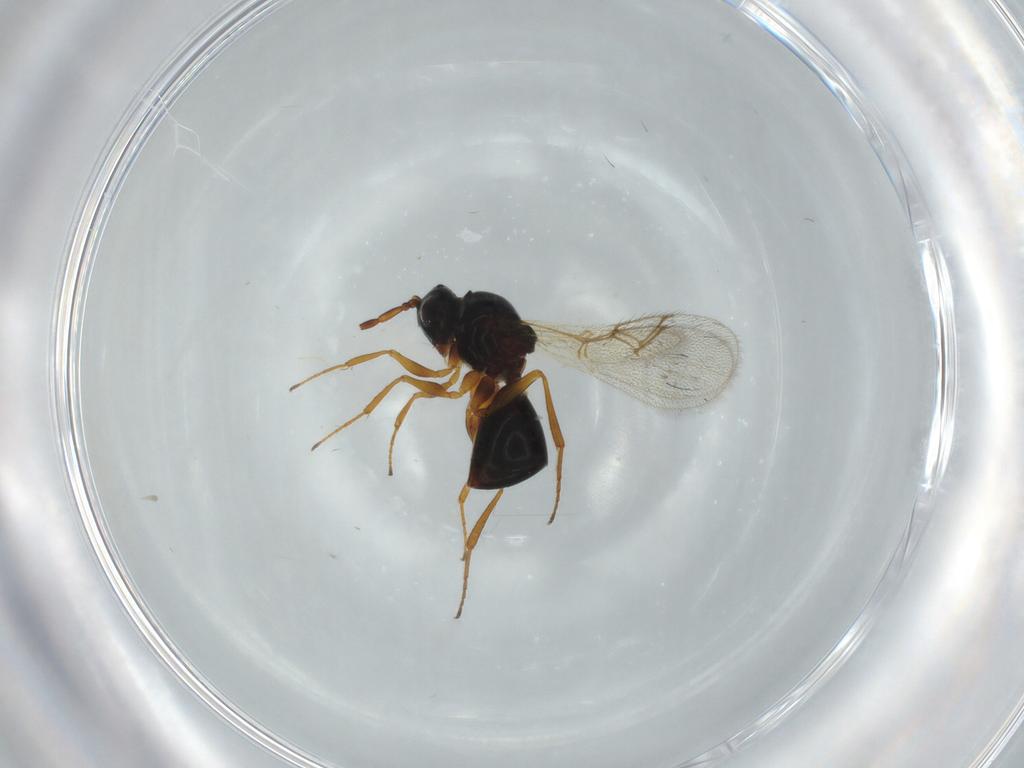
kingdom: Animalia
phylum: Arthropoda
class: Insecta
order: Hymenoptera
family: Figitidae
